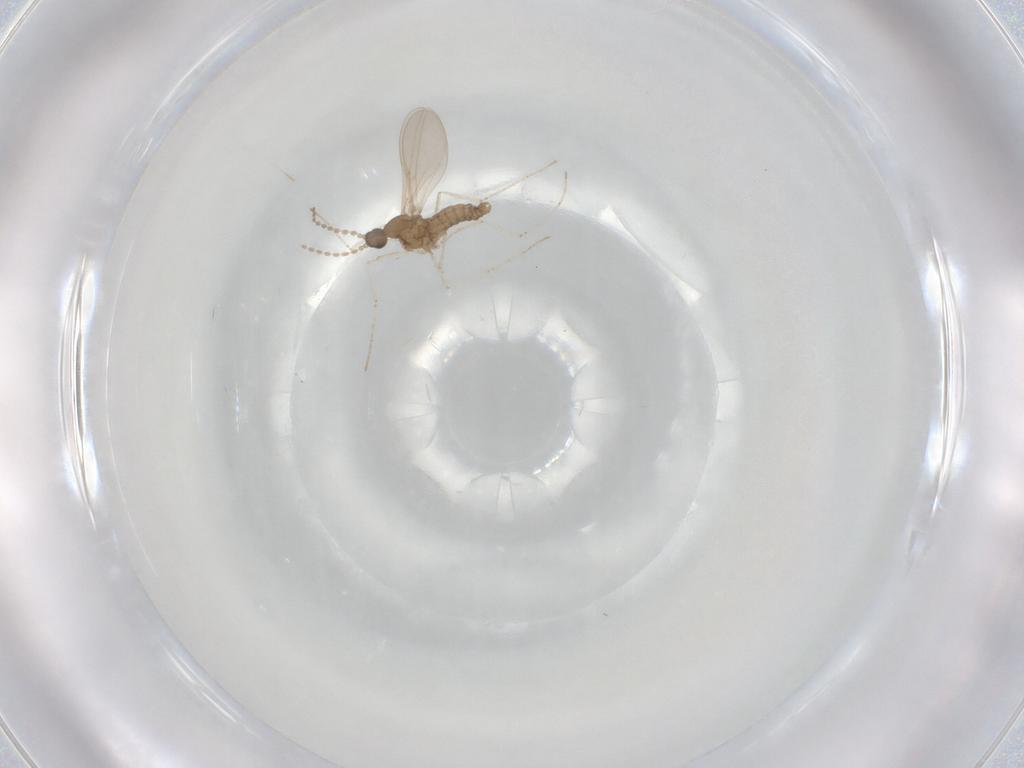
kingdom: Animalia
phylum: Arthropoda
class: Insecta
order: Diptera
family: Cecidomyiidae
